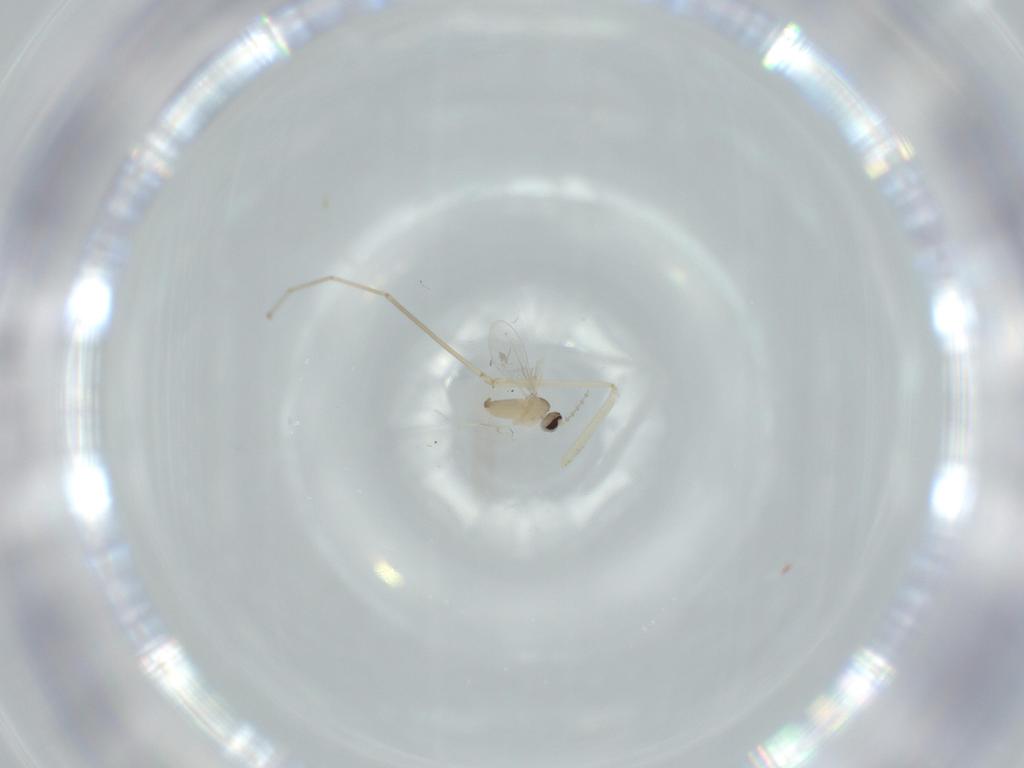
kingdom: Animalia
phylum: Arthropoda
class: Insecta
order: Diptera
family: Cecidomyiidae
